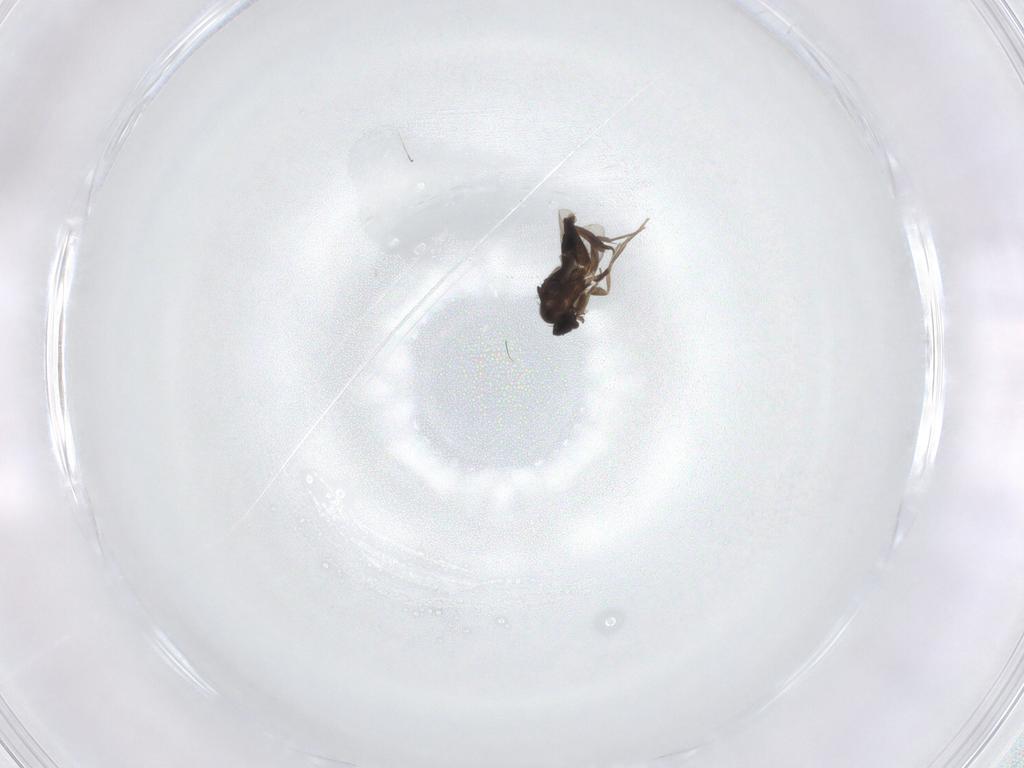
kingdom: Animalia
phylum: Arthropoda
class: Insecta
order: Diptera
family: Phoridae
